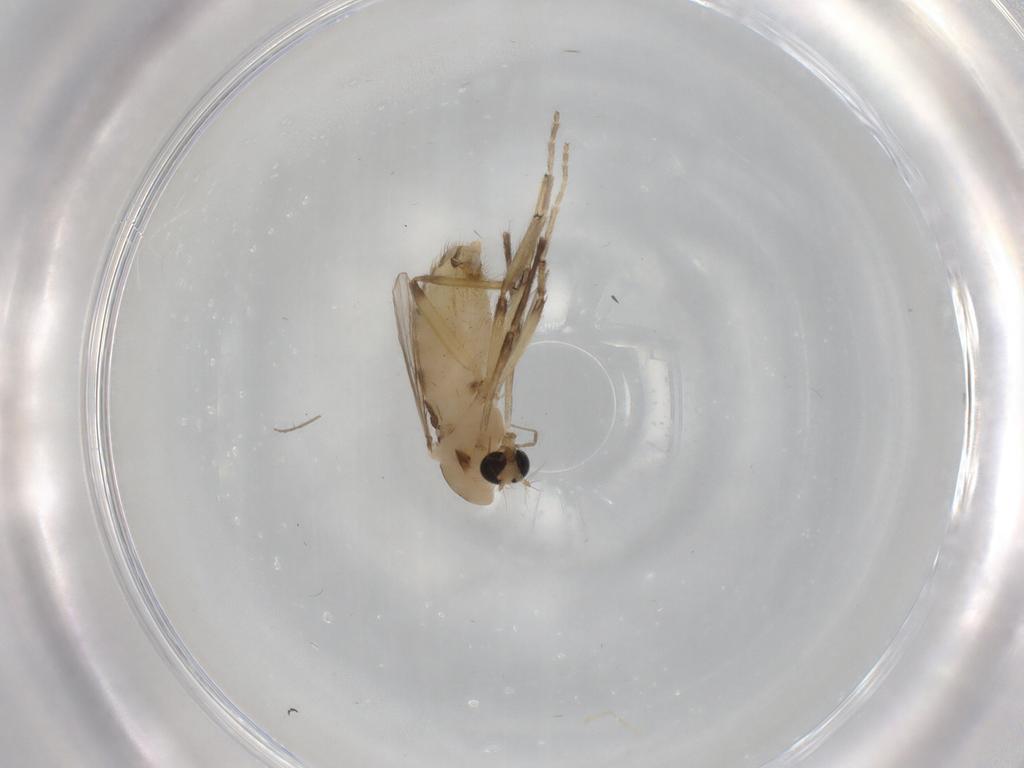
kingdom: Animalia
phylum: Arthropoda
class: Insecta
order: Diptera
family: Chironomidae
